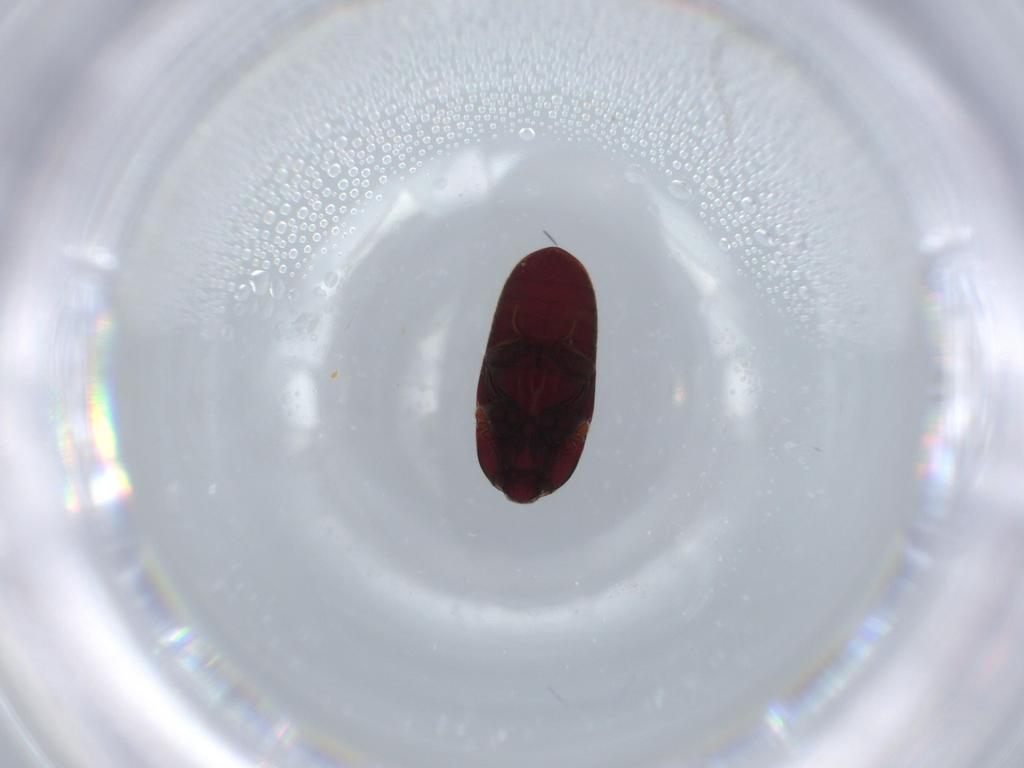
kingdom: Animalia
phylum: Arthropoda
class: Insecta
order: Coleoptera
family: Throscidae
